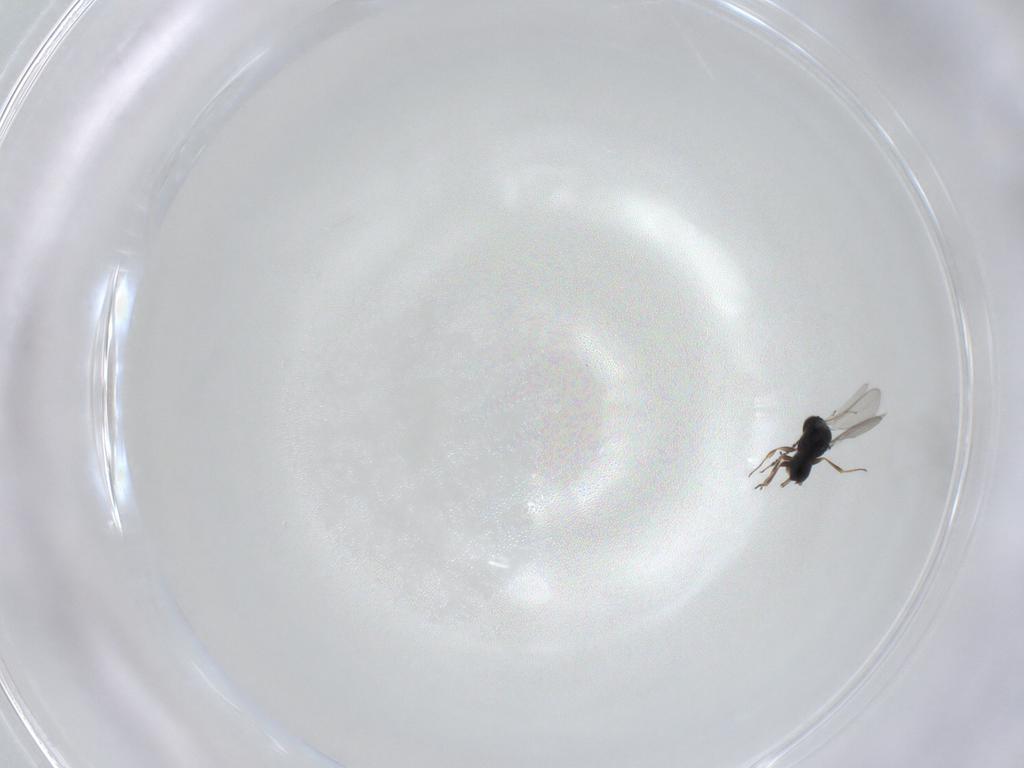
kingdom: Animalia
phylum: Arthropoda
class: Insecta
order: Hymenoptera
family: Scelionidae
